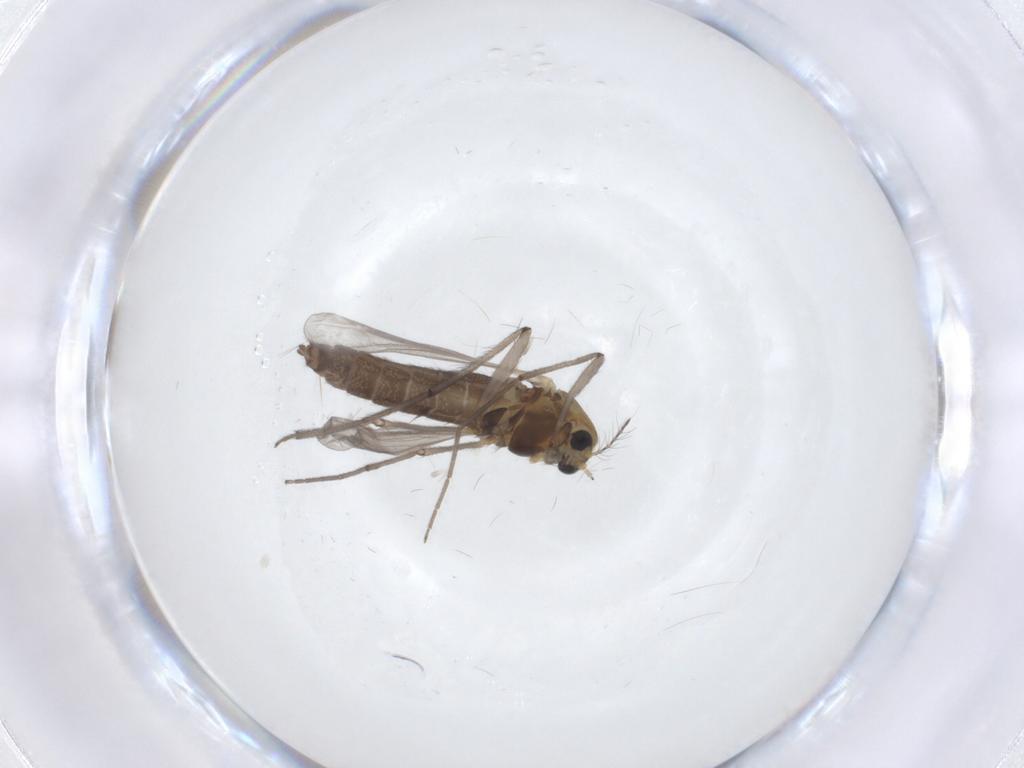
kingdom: Animalia
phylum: Arthropoda
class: Insecta
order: Diptera
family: Chironomidae
